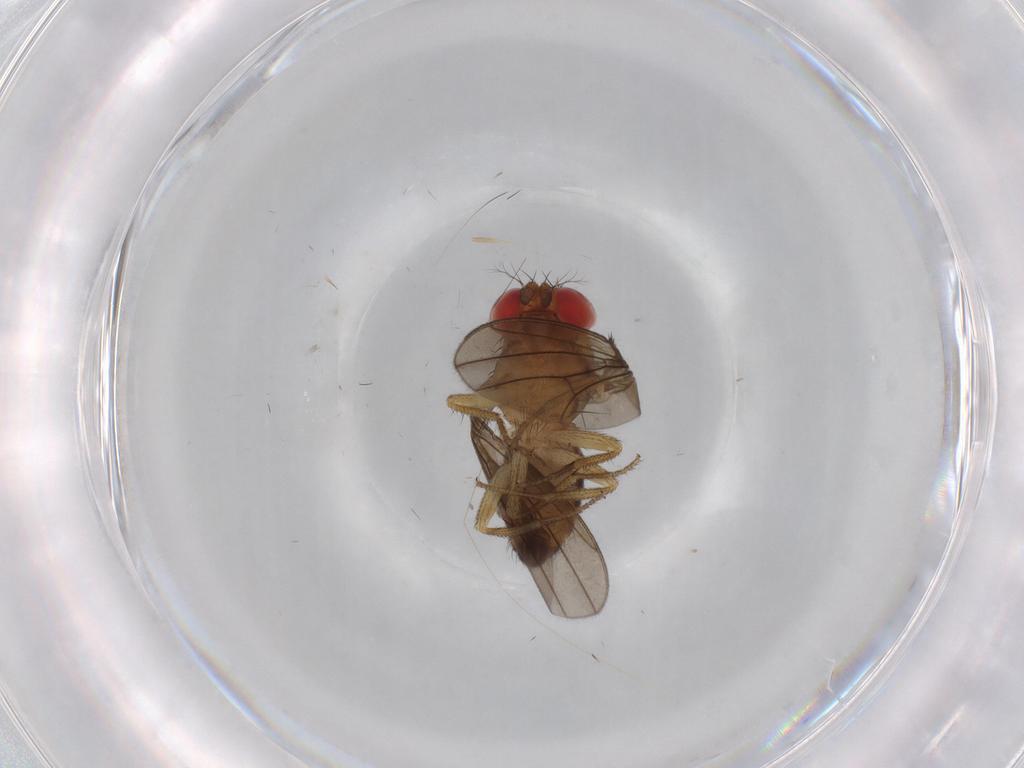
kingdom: Animalia
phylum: Arthropoda
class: Insecta
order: Diptera
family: Drosophilidae
